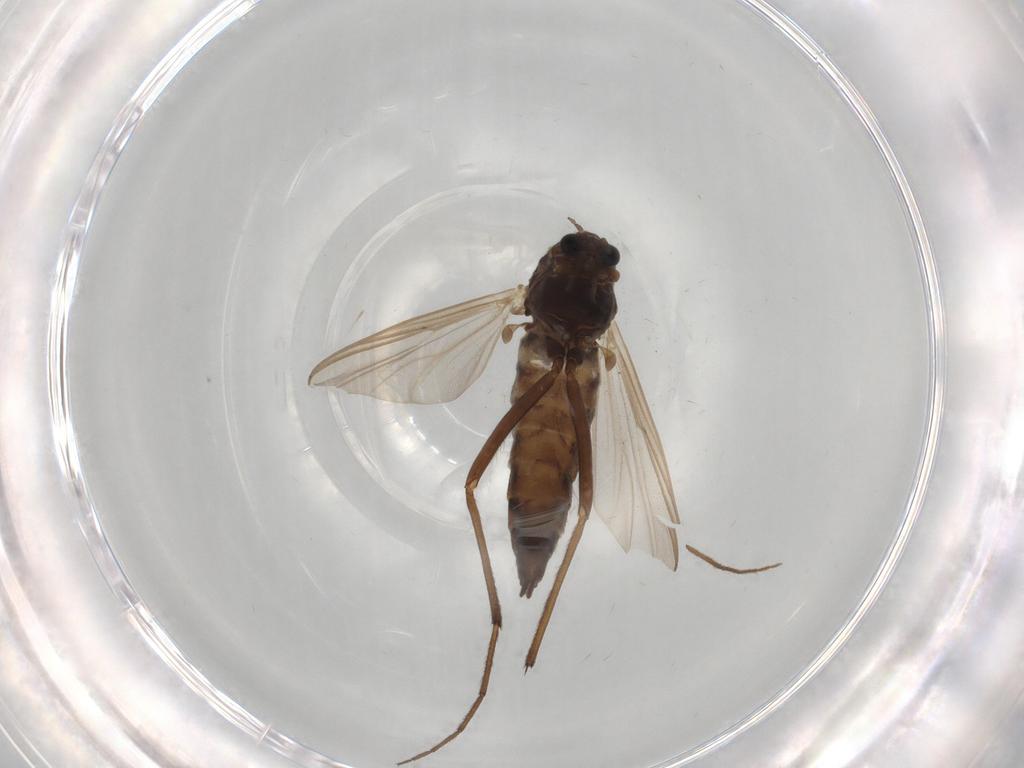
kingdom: Animalia
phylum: Arthropoda
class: Insecta
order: Diptera
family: Chironomidae
